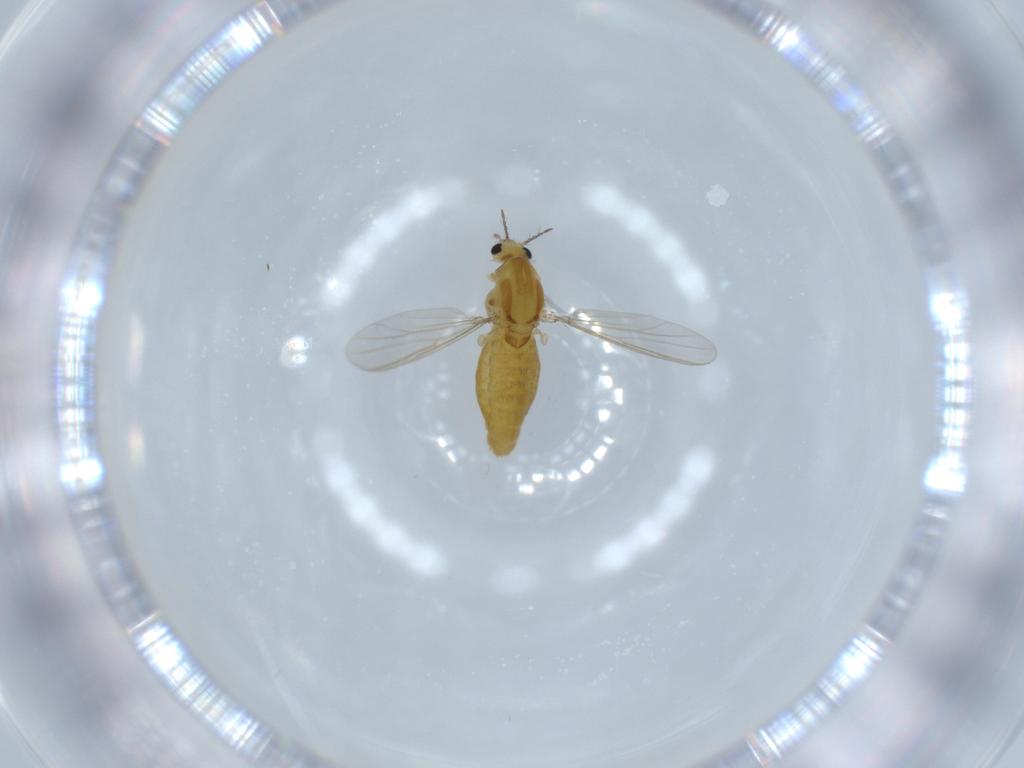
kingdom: Animalia
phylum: Arthropoda
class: Insecta
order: Diptera
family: Chironomidae
